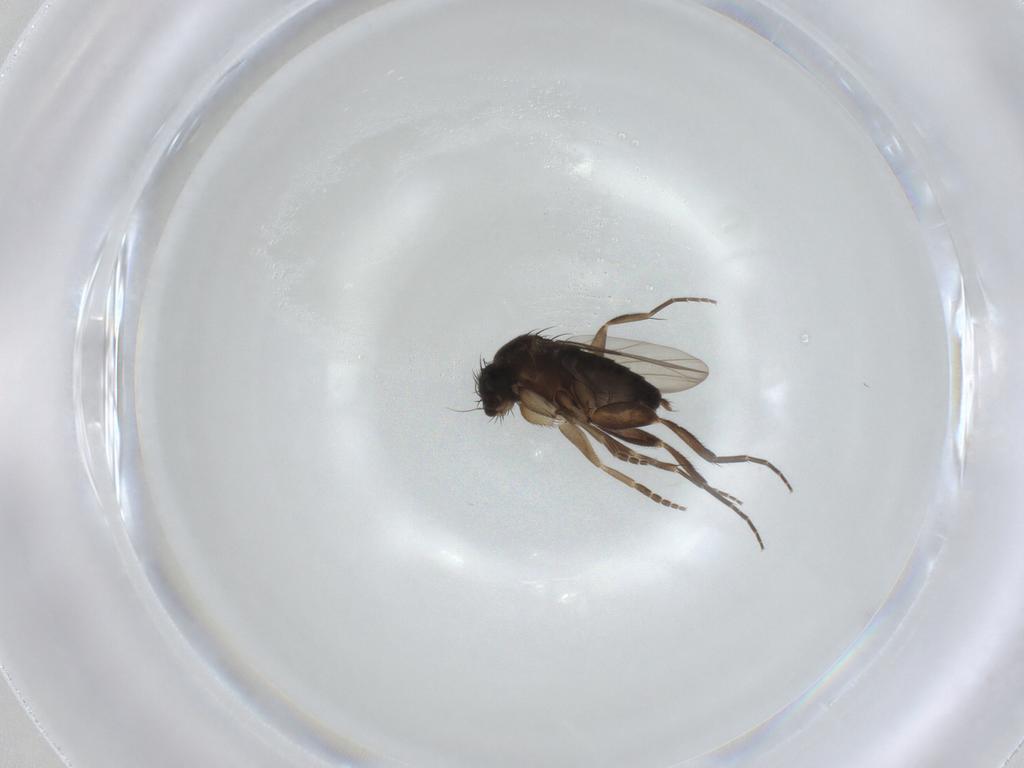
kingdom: Animalia
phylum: Arthropoda
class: Insecta
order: Diptera
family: Phoridae
